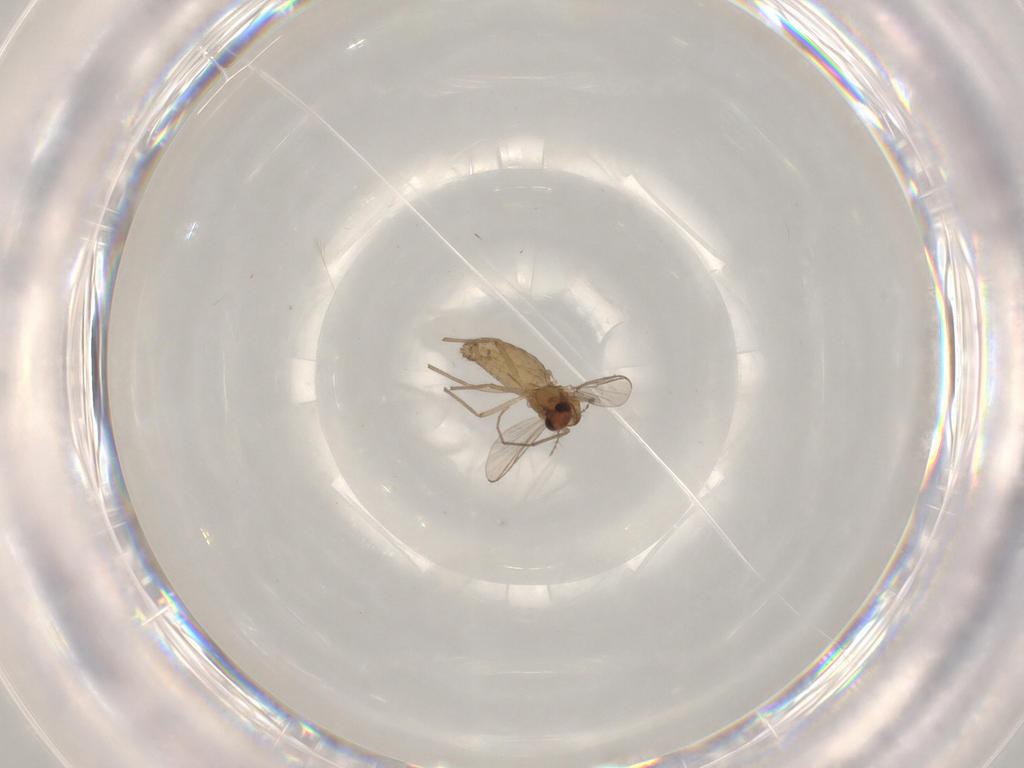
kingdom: Animalia
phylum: Arthropoda
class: Insecta
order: Diptera
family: Chironomidae
